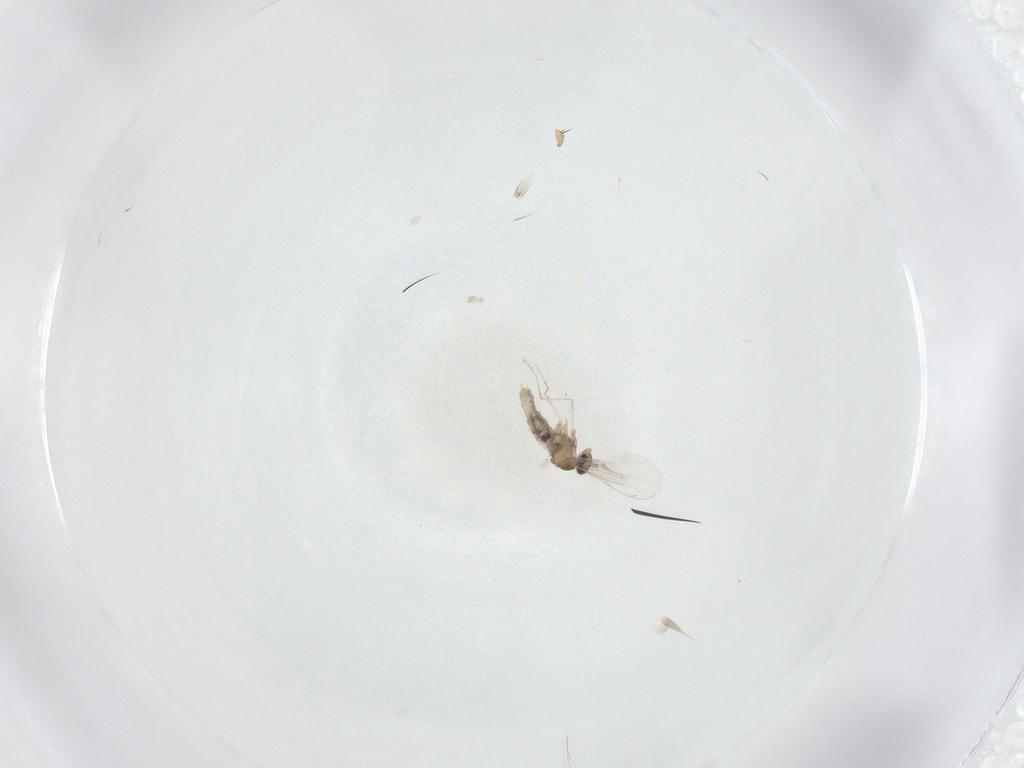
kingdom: Animalia
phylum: Arthropoda
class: Insecta
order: Diptera
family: Cecidomyiidae
